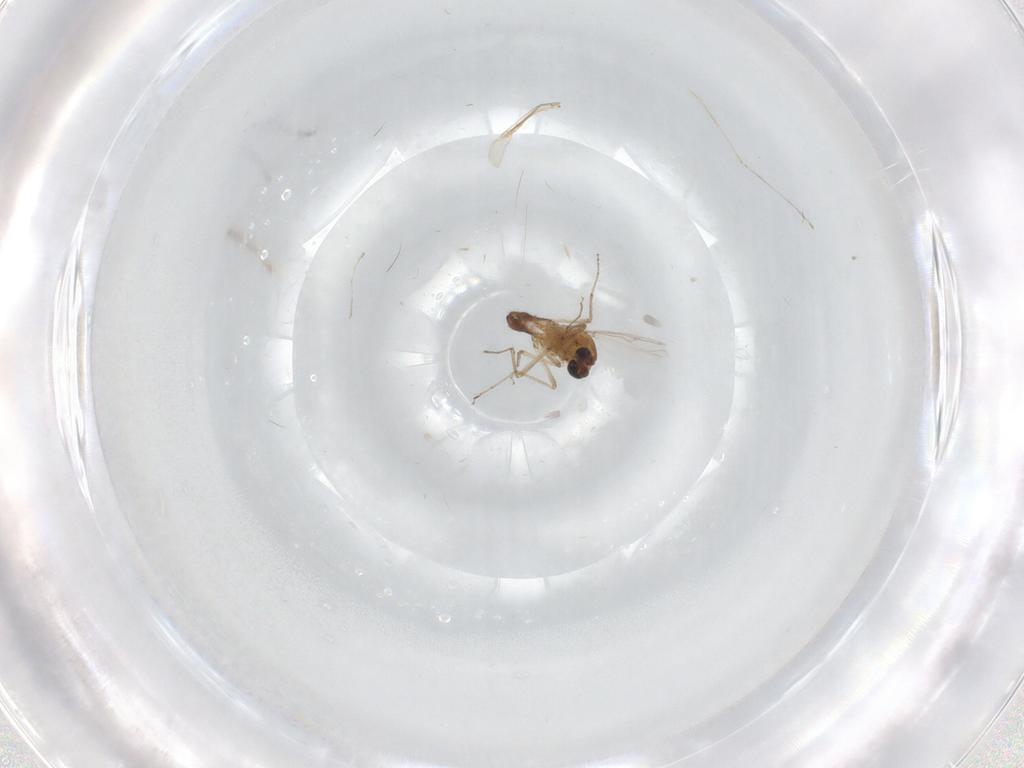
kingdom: Animalia
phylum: Arthropoda
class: Insecta
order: Diptera
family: Cecidomyiidae
